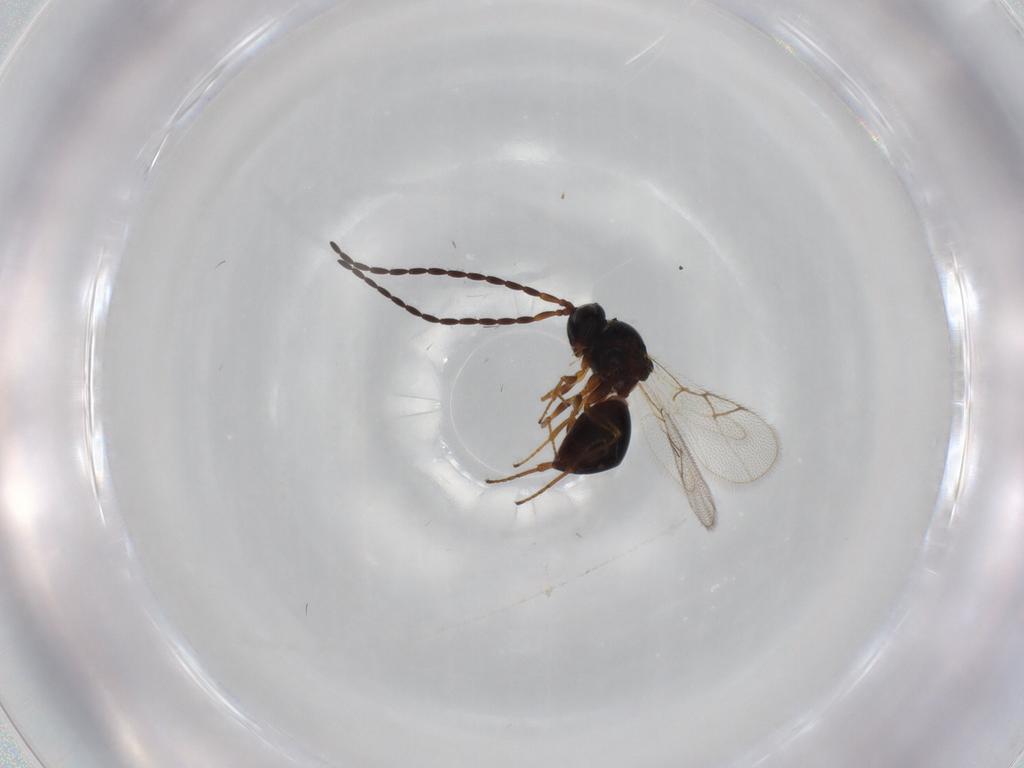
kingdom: Animalia
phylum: Arthropoda
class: Insecta
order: Hymenoptera
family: Figitidae
